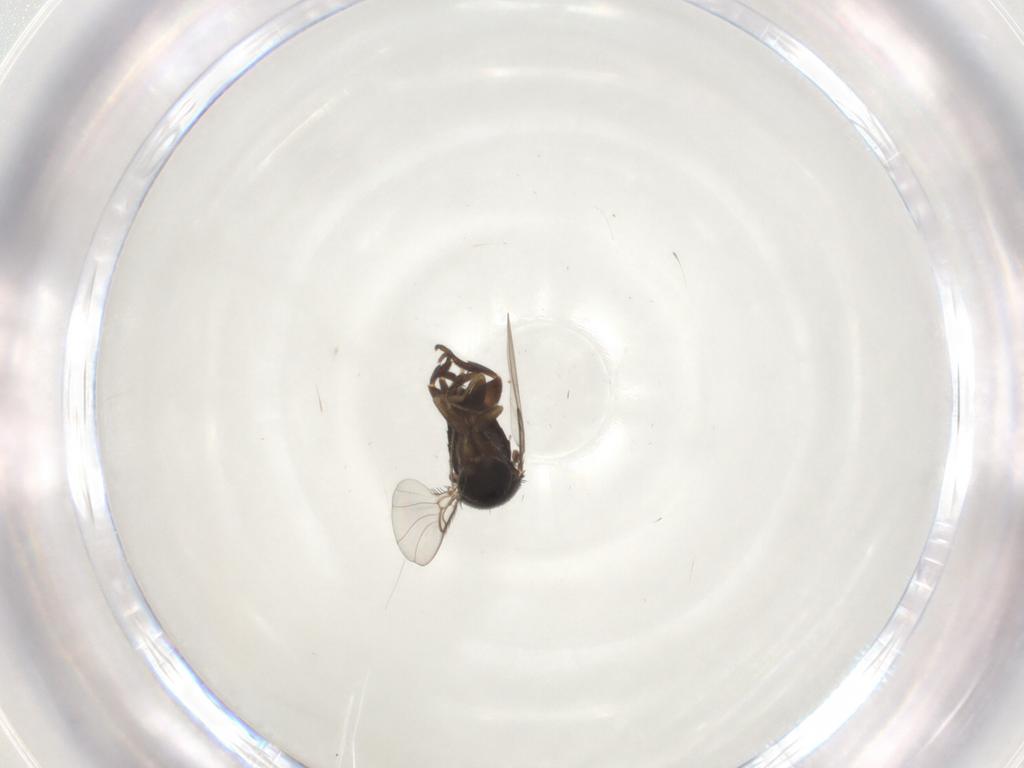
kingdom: Animalia
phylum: Arthropoda
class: Insecta
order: Diptera
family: Phoridae
